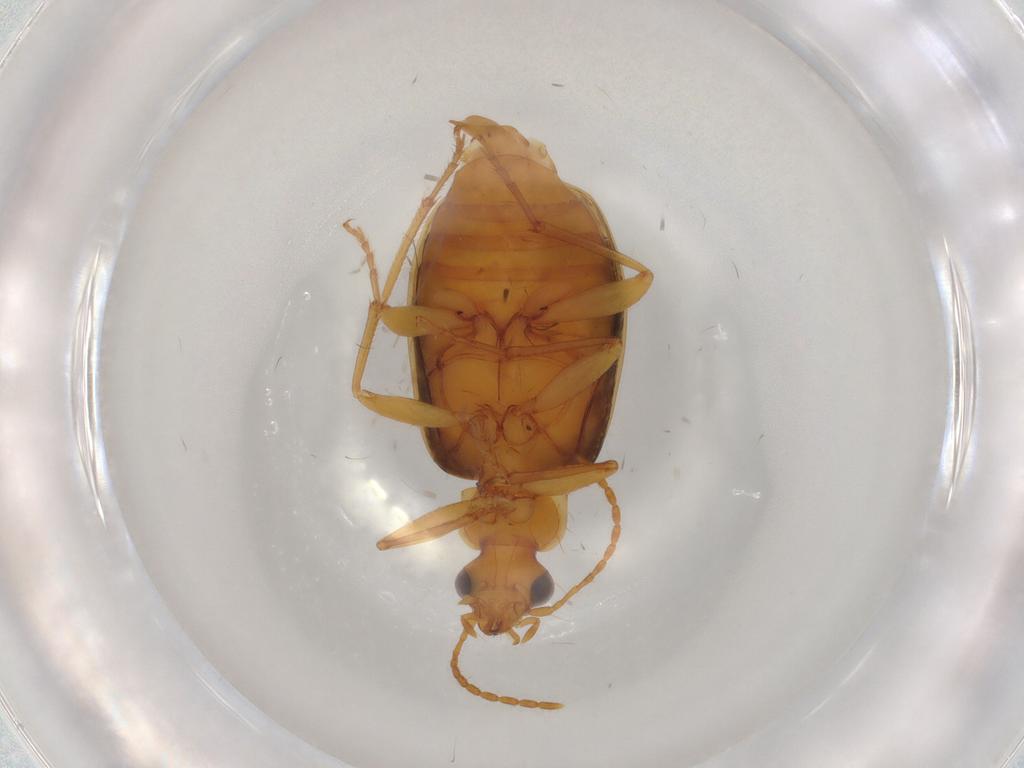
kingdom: Animalia
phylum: Arthropoda
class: Insecta
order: Coleoptera
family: Carabidae
